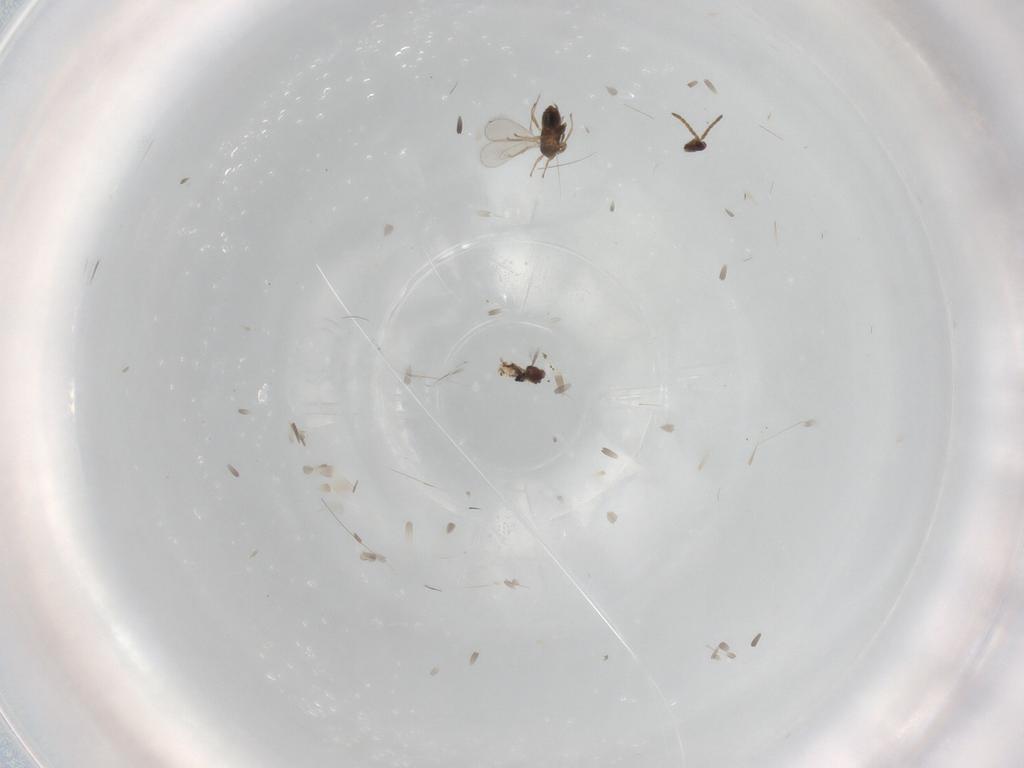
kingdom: Animalia
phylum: Arthropoda
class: Insecta
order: Hymenoptera
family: Aphelinidae
